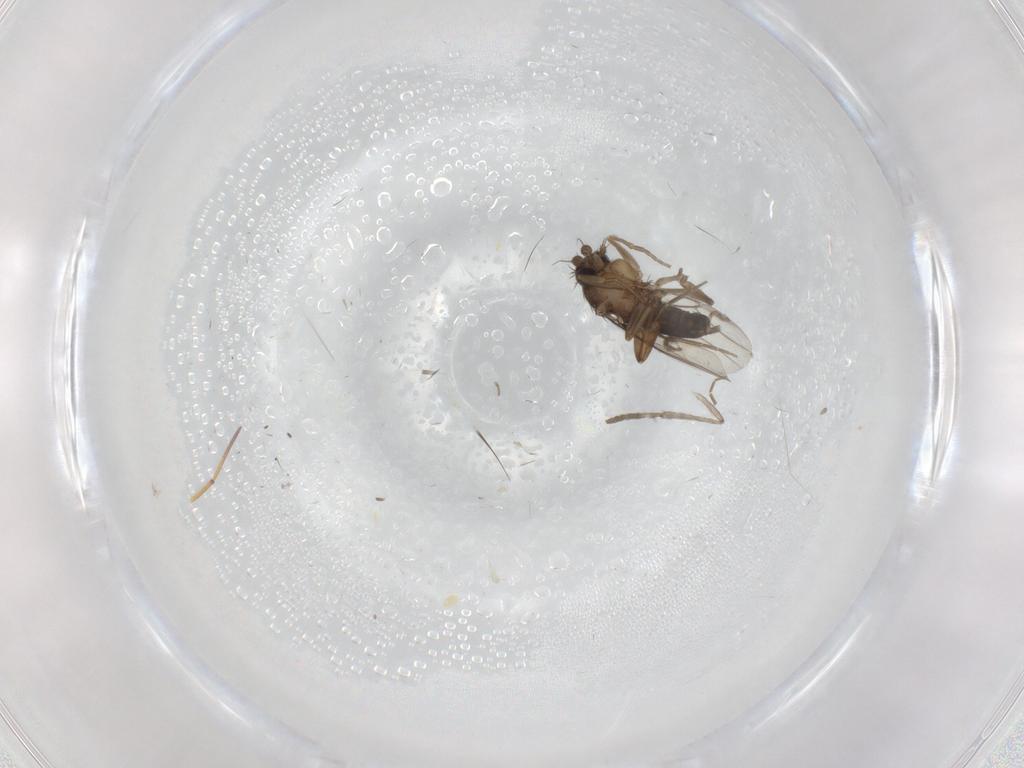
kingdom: Animalia
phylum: Arthropoda
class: Insecta
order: Diptera
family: Phoridae
